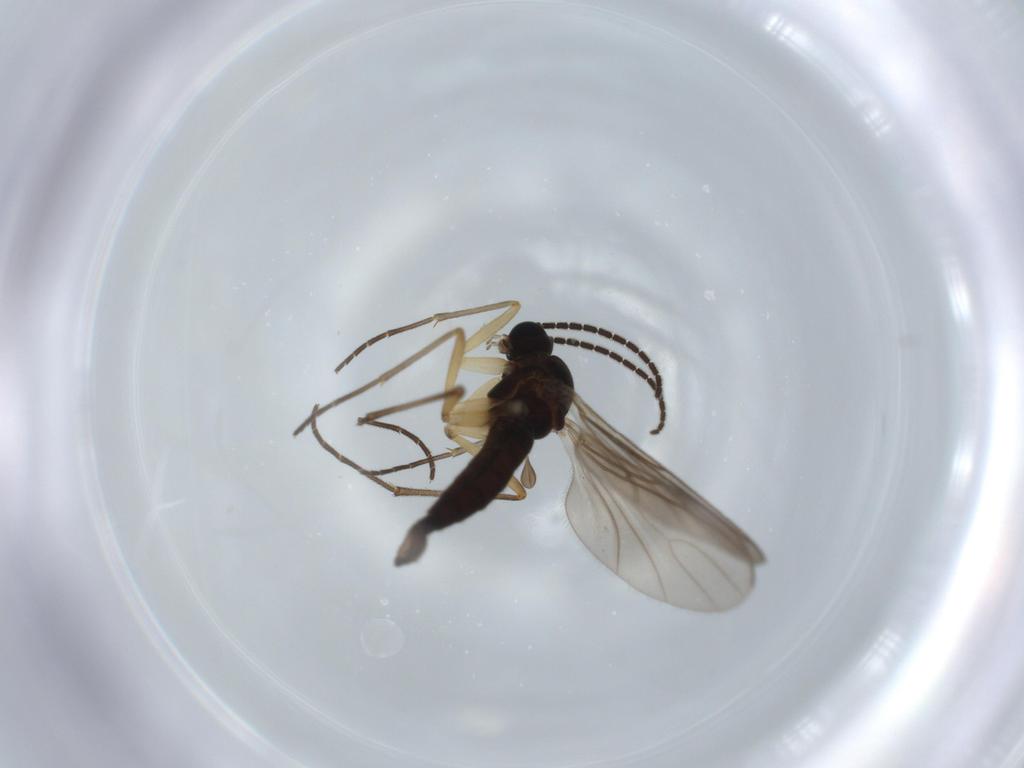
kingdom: Animalia
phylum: Arthropoda
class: Insecta
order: Diptera
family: Sciaridae
